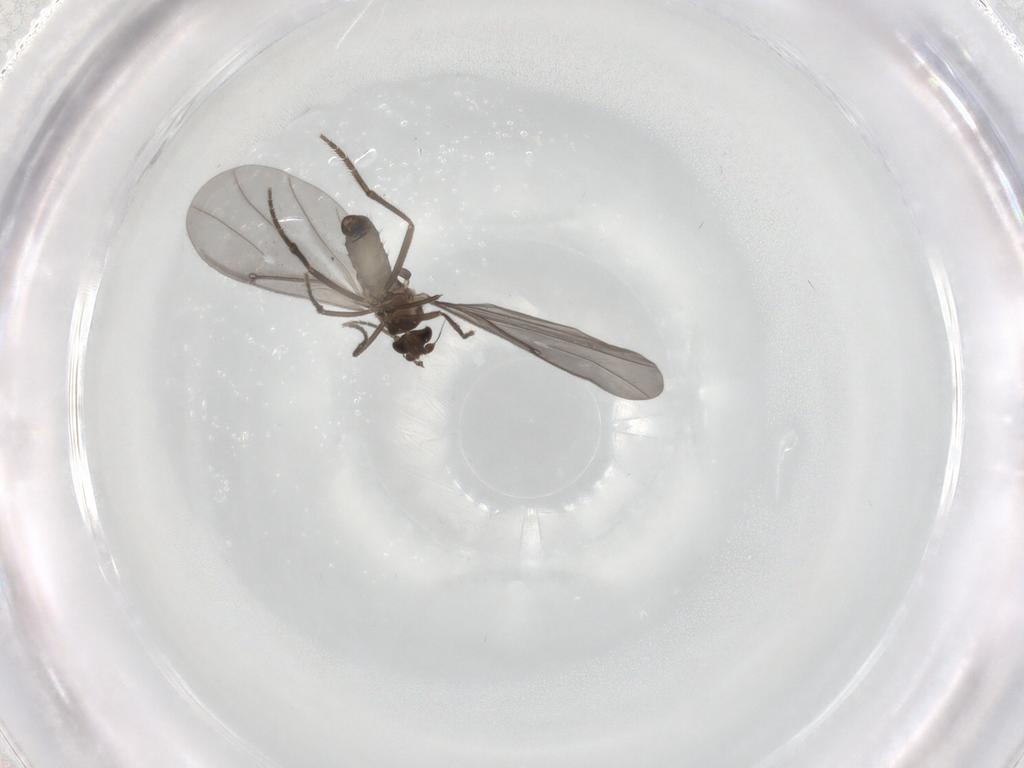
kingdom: Animalia
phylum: Arthropoda
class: Insecta
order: Diptera
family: Phoridae
